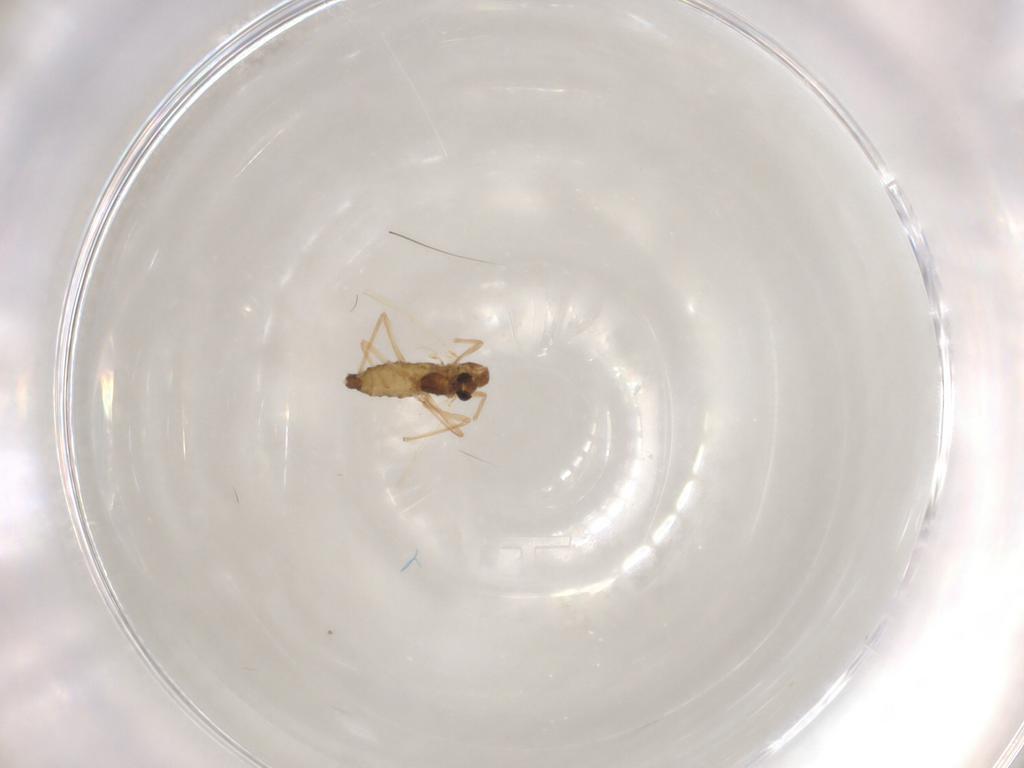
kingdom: Animalia
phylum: Arthropoda
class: Insecta
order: Diptera
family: Chironomidae
